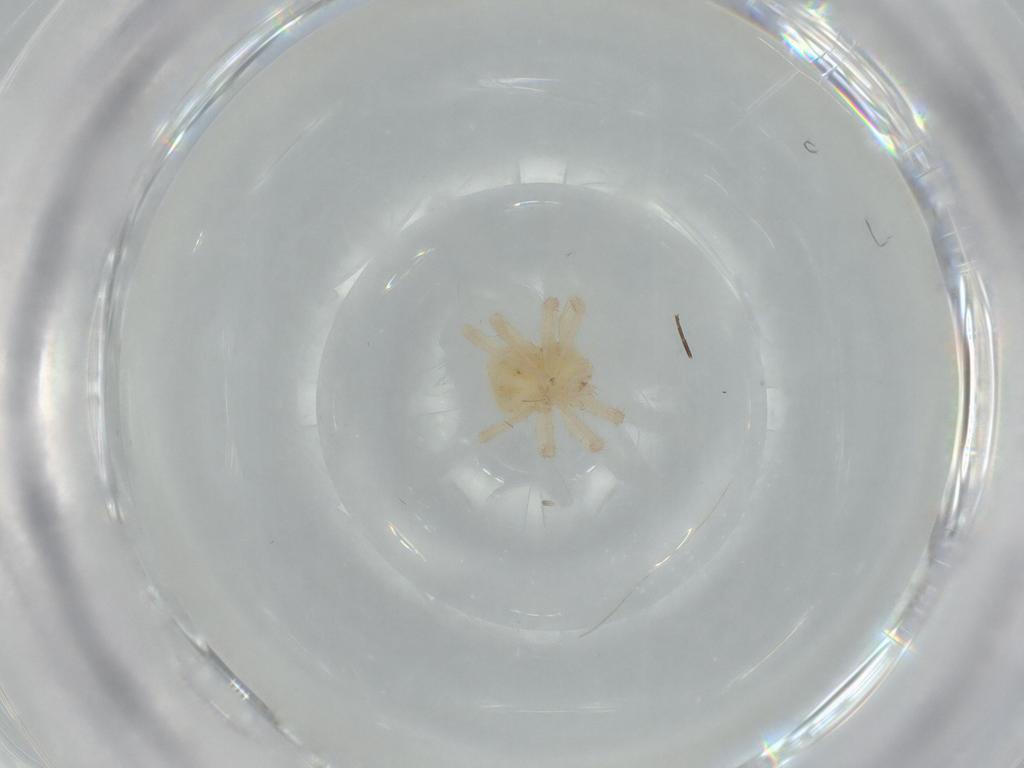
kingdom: Animalia
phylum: Arthropoda
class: Arachnida
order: Trombidiformes
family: Anystidae
